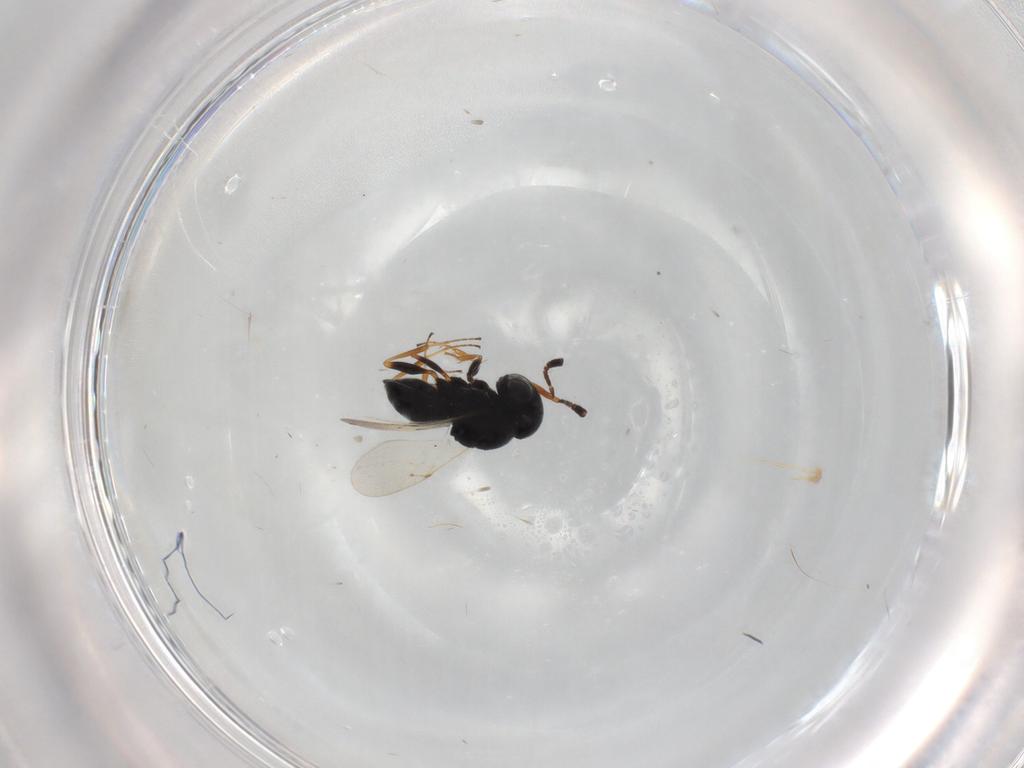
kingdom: Animalia
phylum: Arthropoda
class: Insecta
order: Coleoptera
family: Curculionidae
